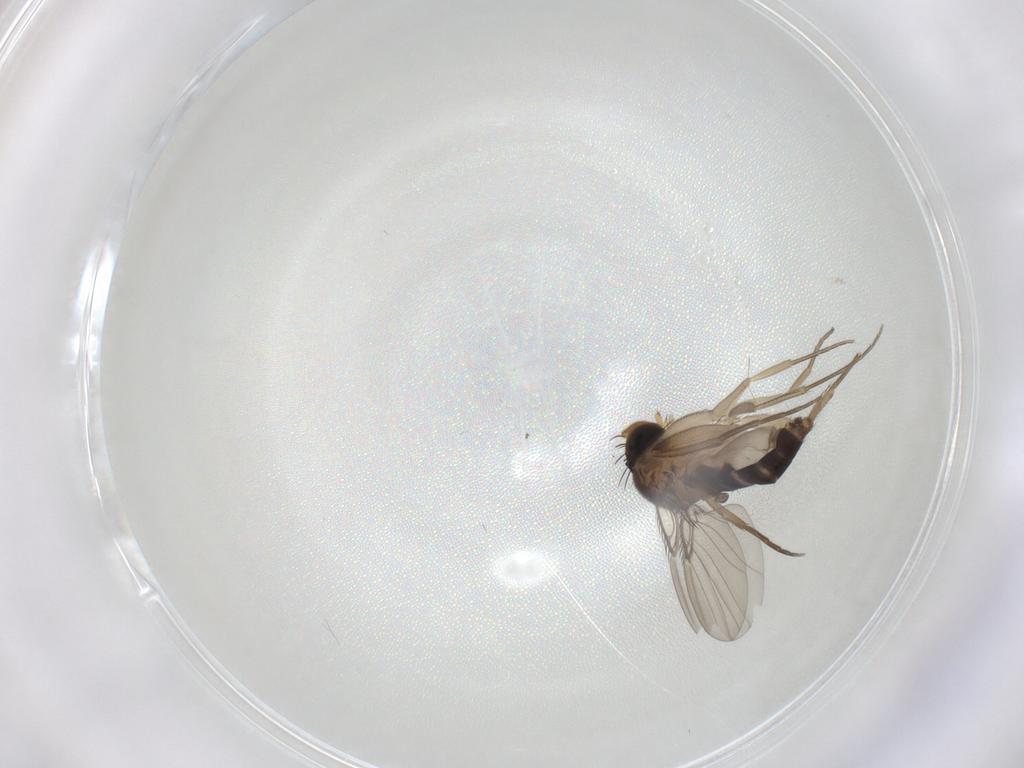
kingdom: Animalia
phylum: Arthropoda
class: Insecta
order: Diptera
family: Phoridae
